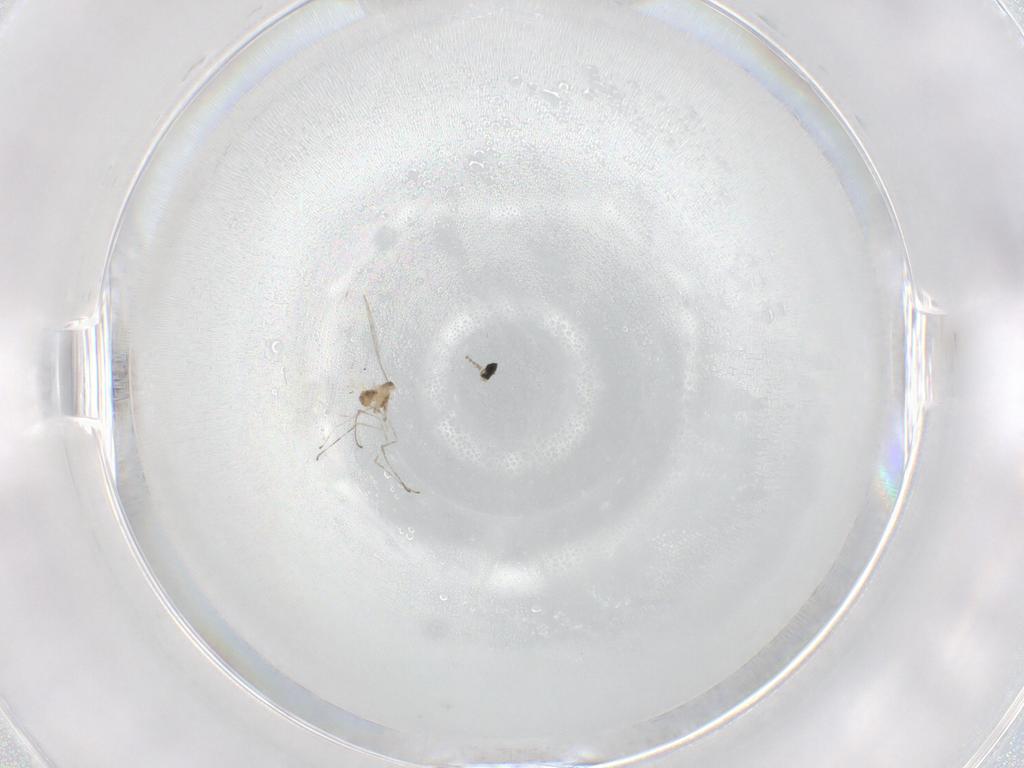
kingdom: Animalia
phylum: Arthropoda
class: Insecta
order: Diptera
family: Cecidomyiidae
